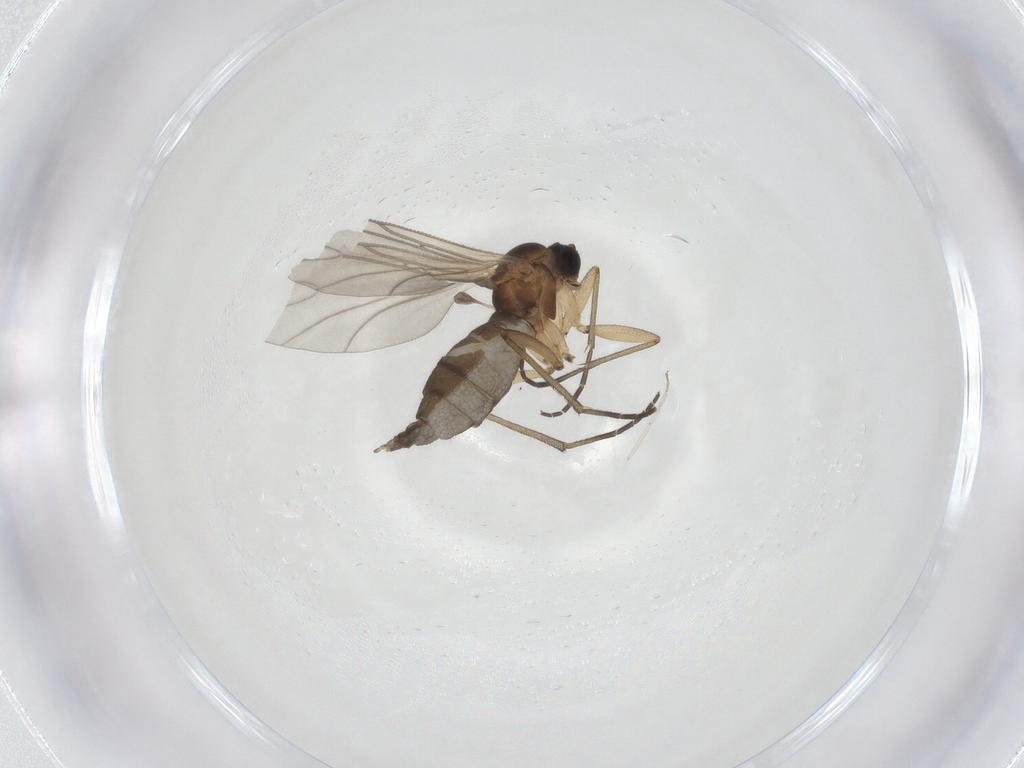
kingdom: Animalia
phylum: Arthropoda
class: Insecta
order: Diptera
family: Sciaridae
